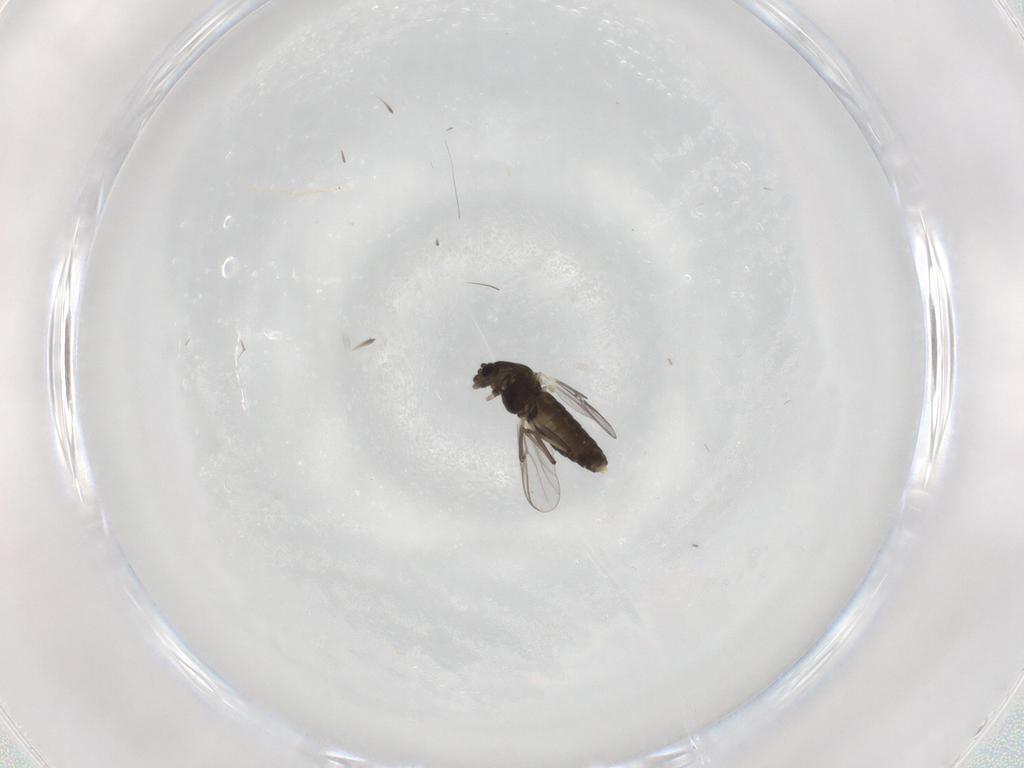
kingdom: Animalia
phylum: Arthropoda
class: Insecta
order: Diptera
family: Chironomidae
